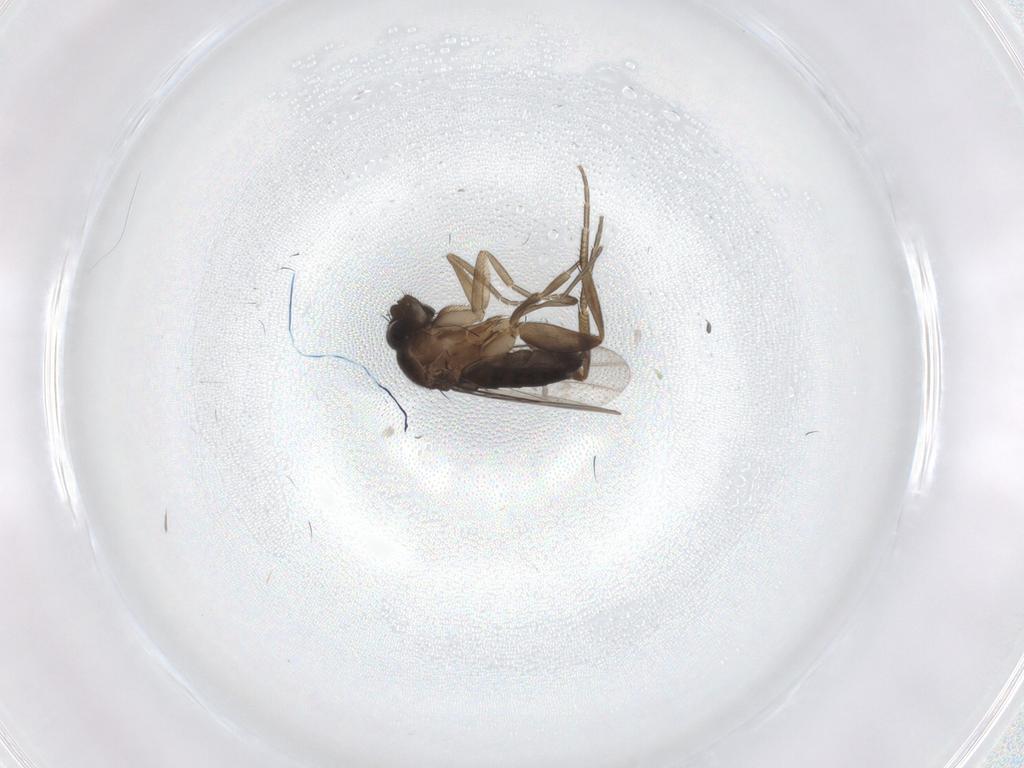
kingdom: Animalia
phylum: Arthropoda
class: Insecta
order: Diptera
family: Phoridae
